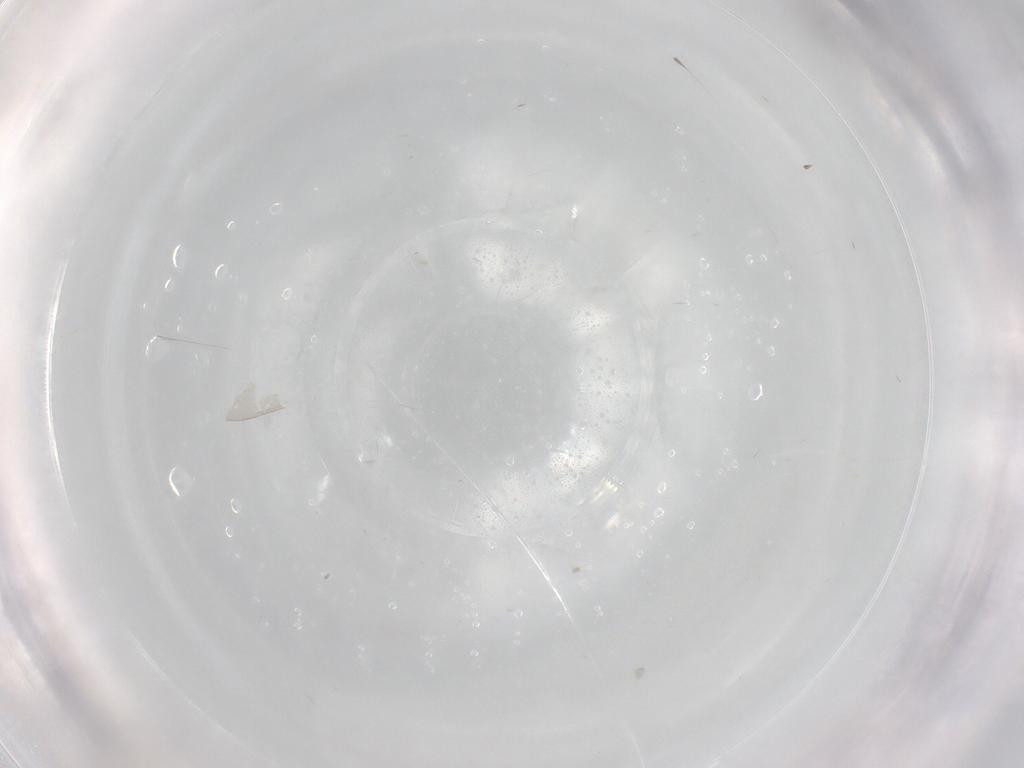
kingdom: Animalia
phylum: Arthropoda
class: Insecta
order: Hemiptera
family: Aleyrodidae
